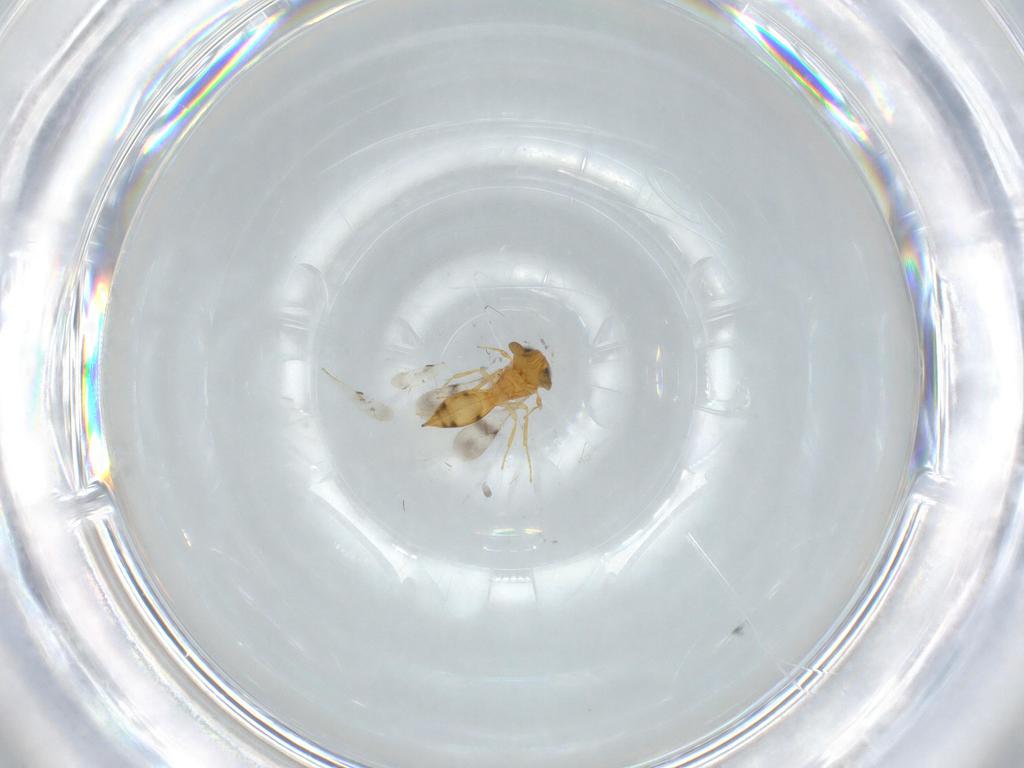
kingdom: Animalia
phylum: Arthropoda
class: Insecta
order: Hymenoptera
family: Scelionidae
